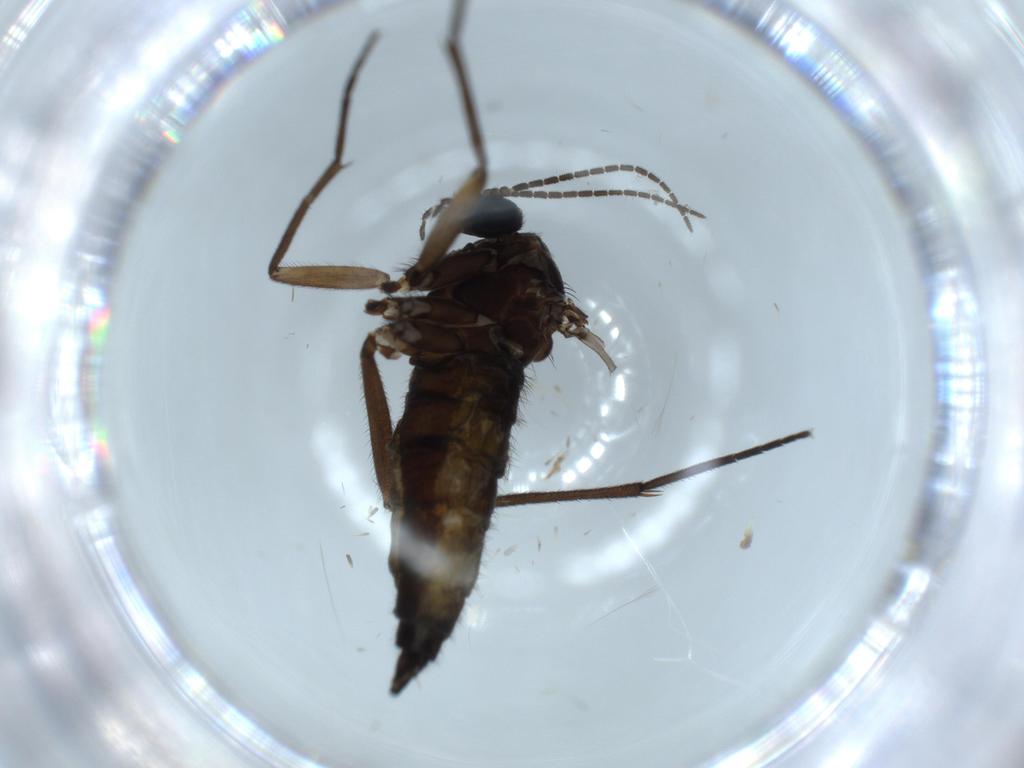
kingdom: Animalia
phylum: Arthropoda
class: Insecta
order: Diptera
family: Sciaridae
